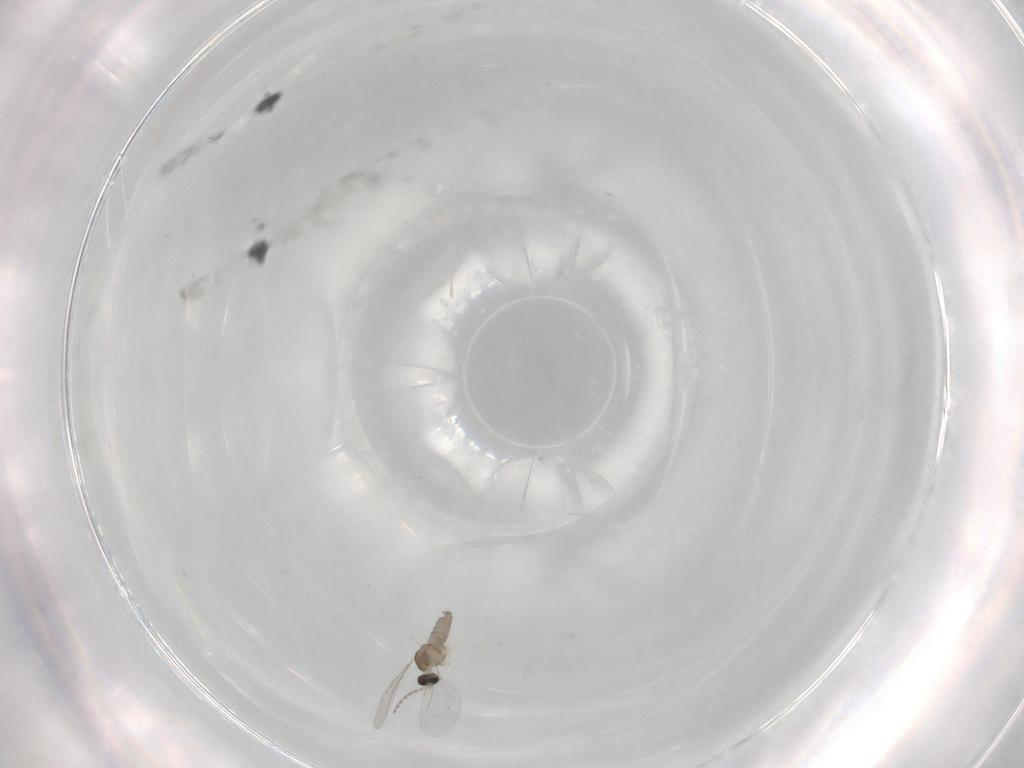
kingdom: Animalia
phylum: Arthropoda
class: Insecta
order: Diptera
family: Cecidomyiidae
